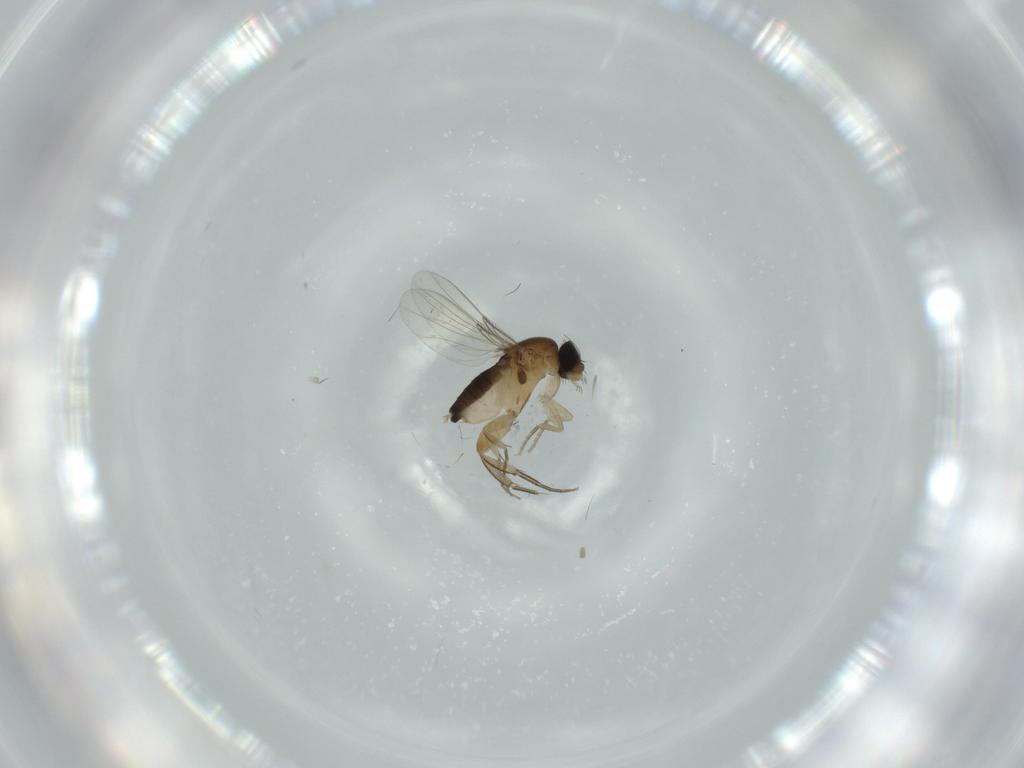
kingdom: Animalia
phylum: Arthropoda
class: Insecta
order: Diptera
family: Phoridae
